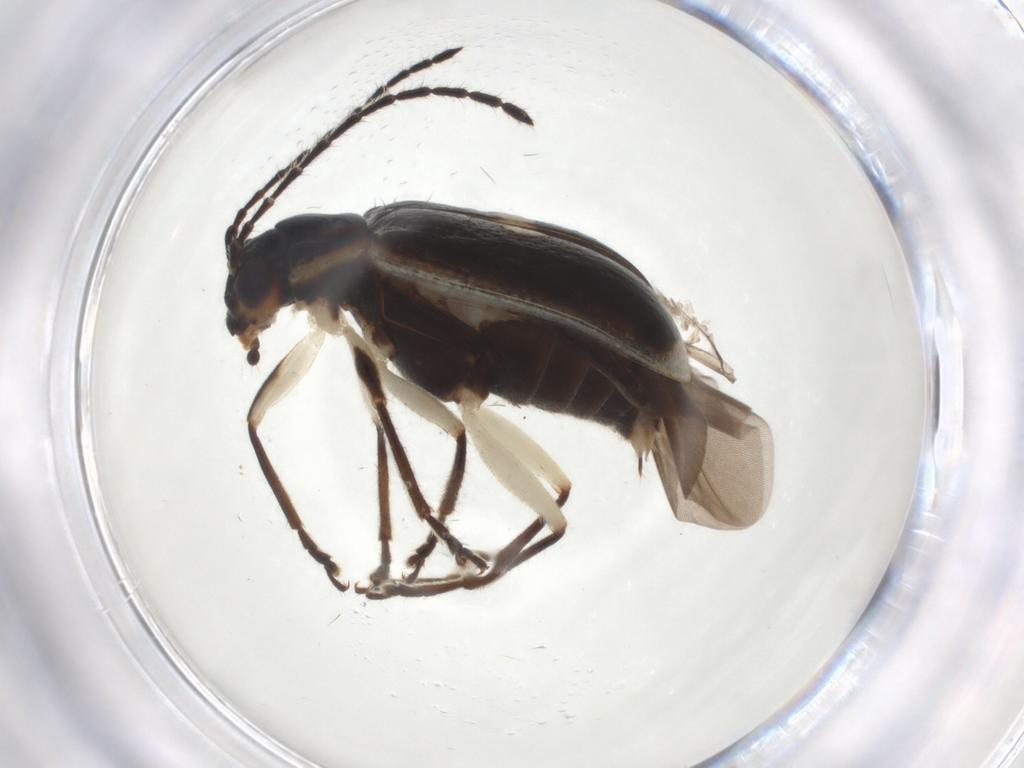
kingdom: Animalia
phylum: Arthropoda
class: Insecta
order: Coleoptera
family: Chrysomelidae
